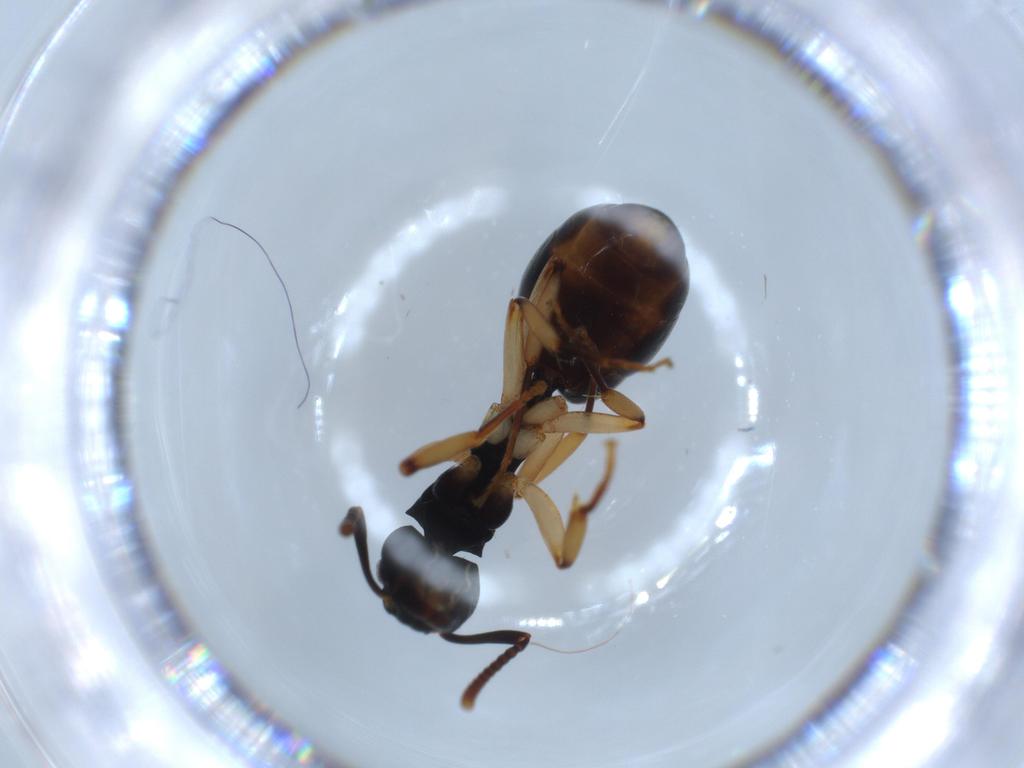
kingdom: Animalia
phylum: Arthropoda
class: Insecta
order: Hymenoptera
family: Formicidae
